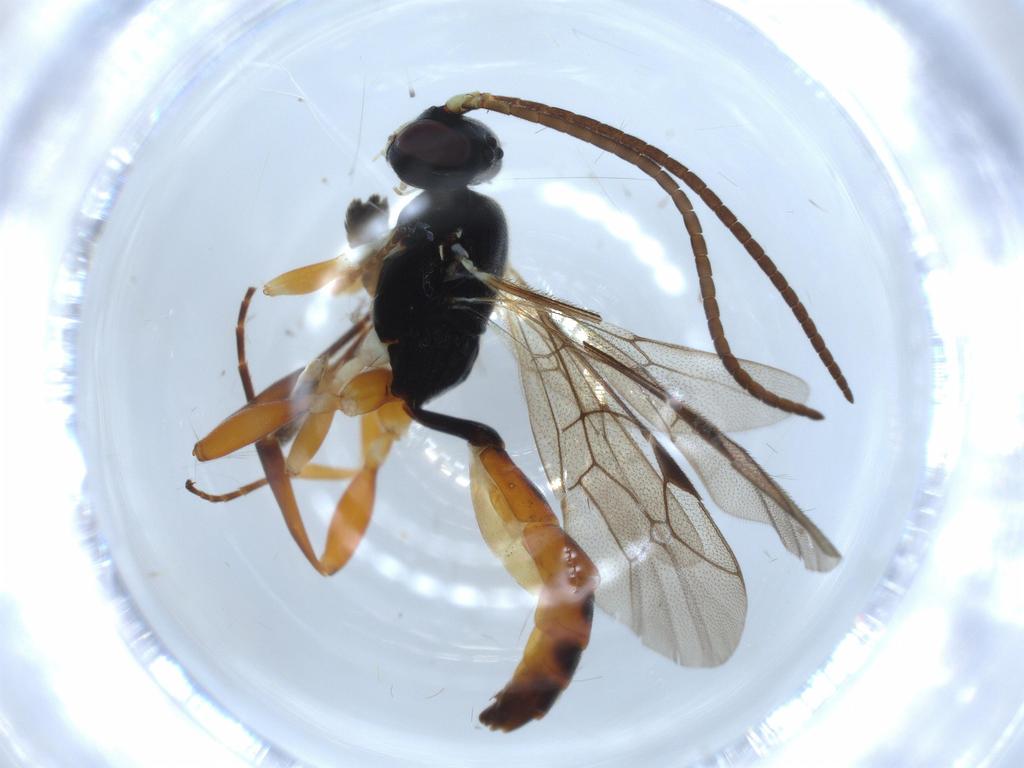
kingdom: Animalia
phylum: Arthropoda
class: Insecta
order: Hymenoptera
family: Ichneumonidae
